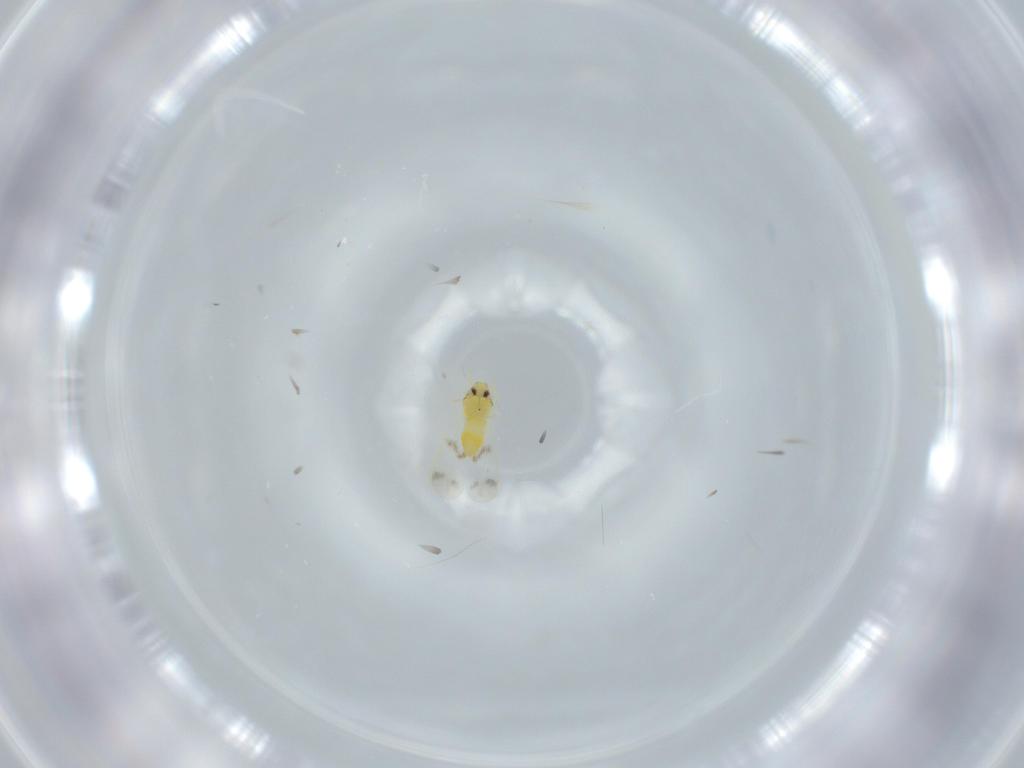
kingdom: Animalia
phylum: Arthropoda
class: Insecta
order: Hemiptera
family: Aleyrodidae
